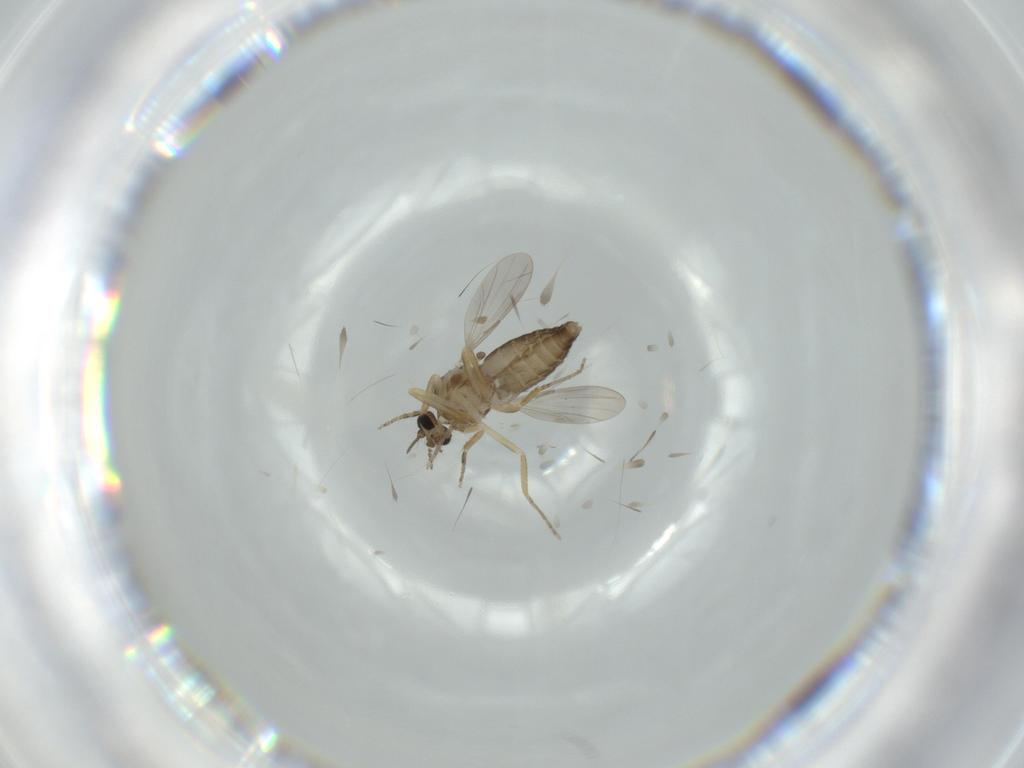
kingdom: Animalia
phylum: Arthropoda
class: Insecta
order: Diptera
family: Ceratopogonidae
